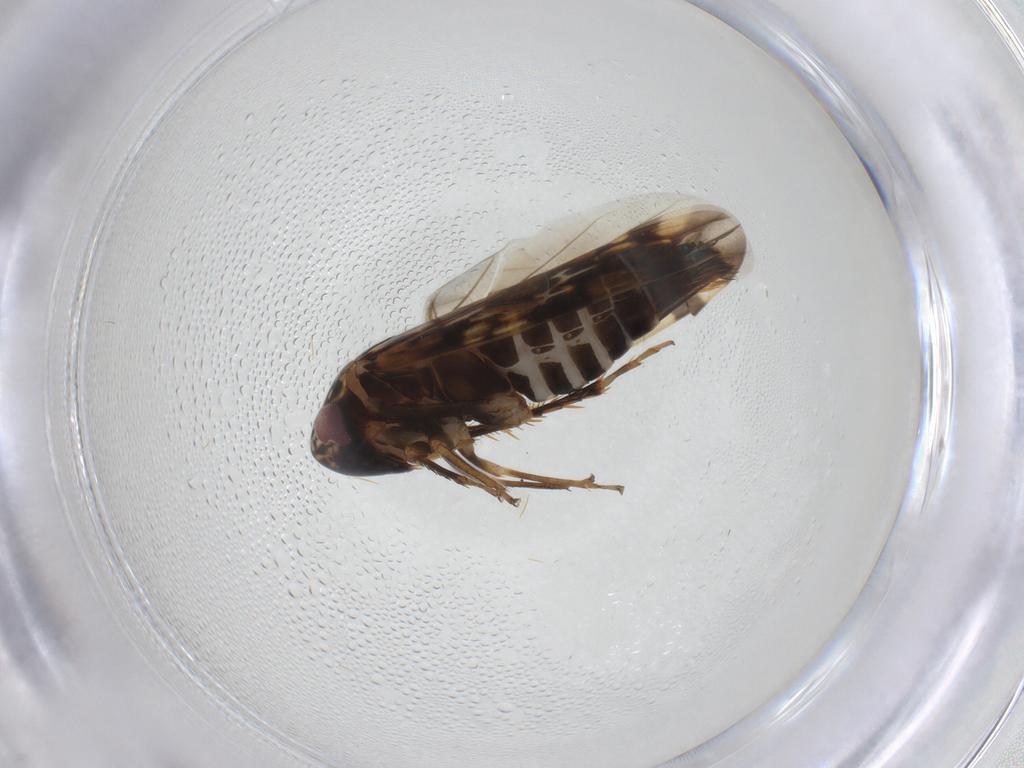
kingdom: Animalia
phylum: Arthropoda
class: Insecta
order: Hemiptera
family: Cicadellidae
